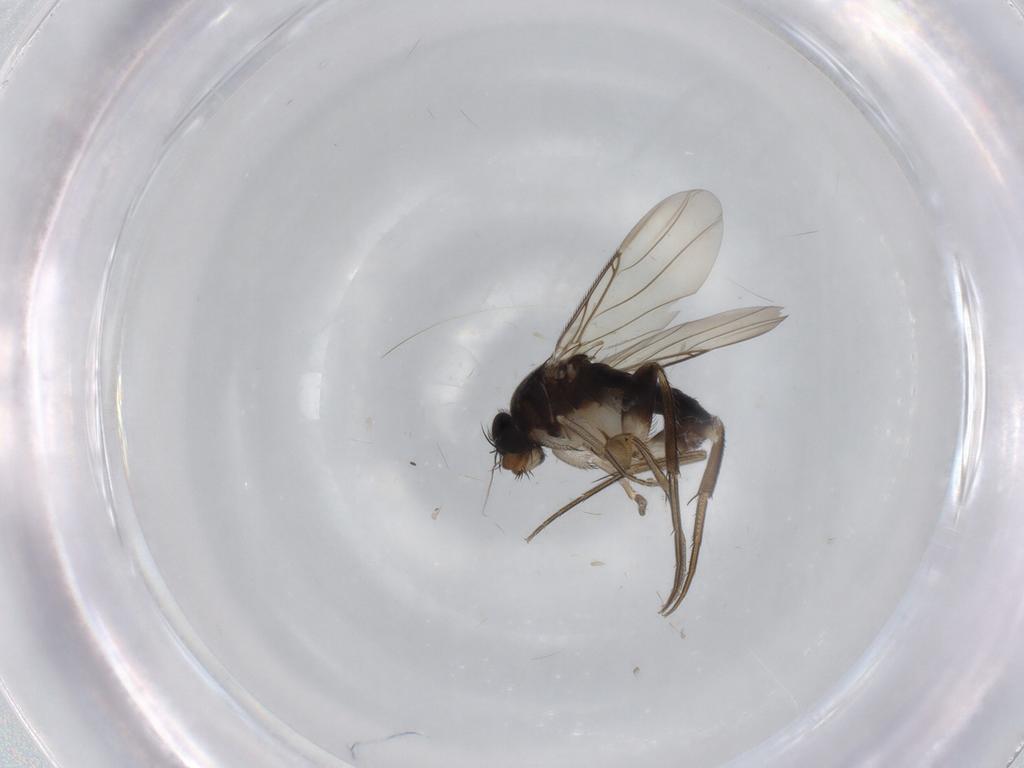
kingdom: Animalia
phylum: Arthropoda
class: Insecta
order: Diptera
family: Phoridae
